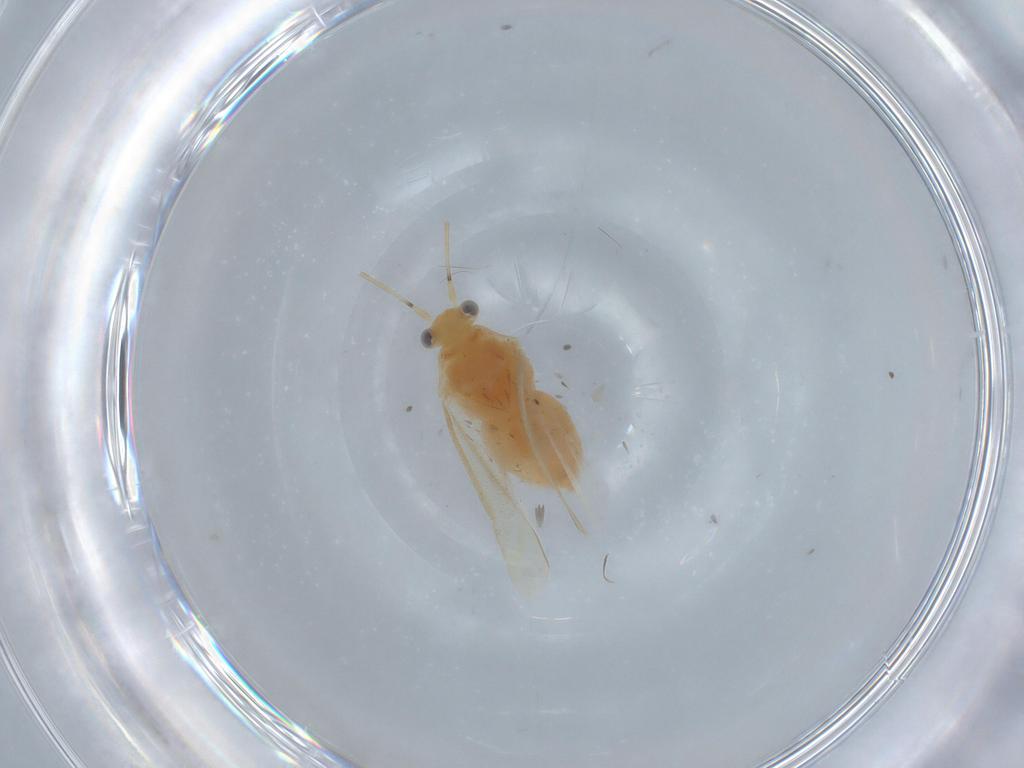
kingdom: Animalia
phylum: Arthropoda
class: Insecta
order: Hemiptera
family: Miridae
